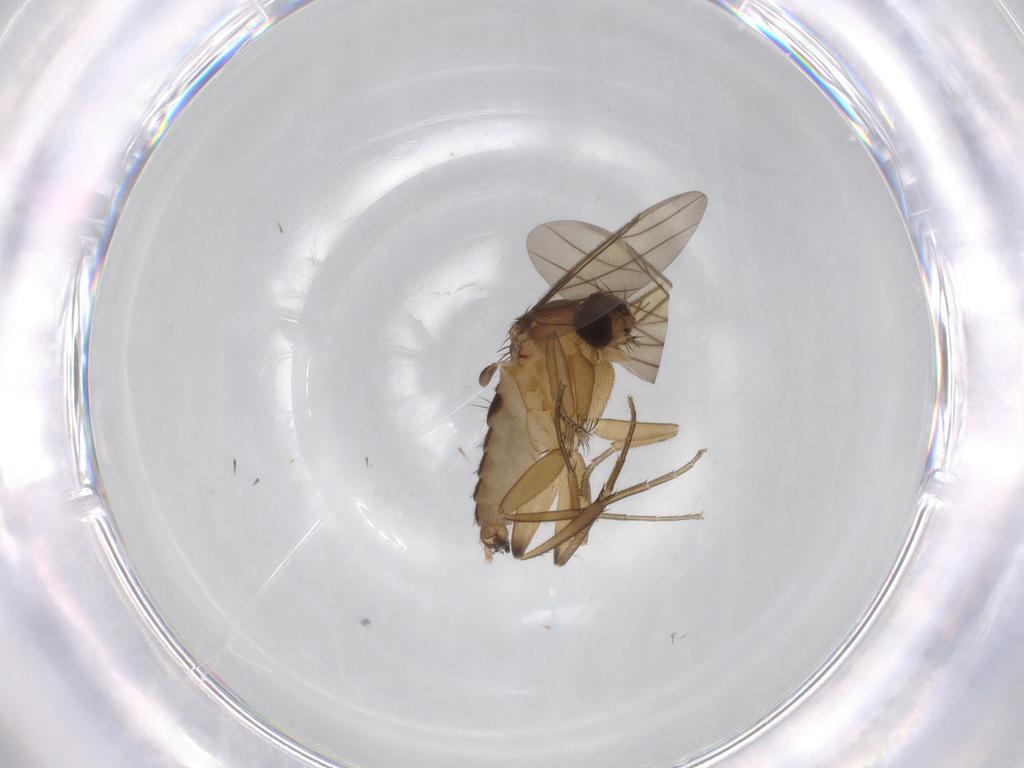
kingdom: Animalia
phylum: Arthropoda
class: Insecta
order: Diptera
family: Phoridae
